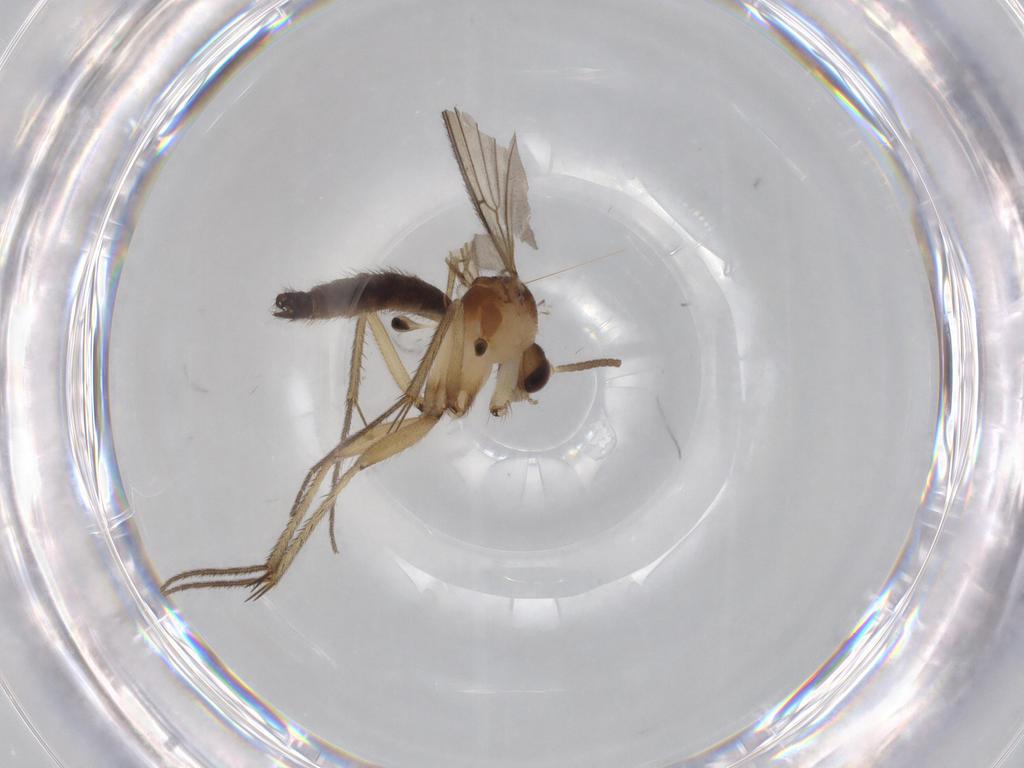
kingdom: Animalia
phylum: Arthropoda
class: Insecta
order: Diptera
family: Mycetophilidae
